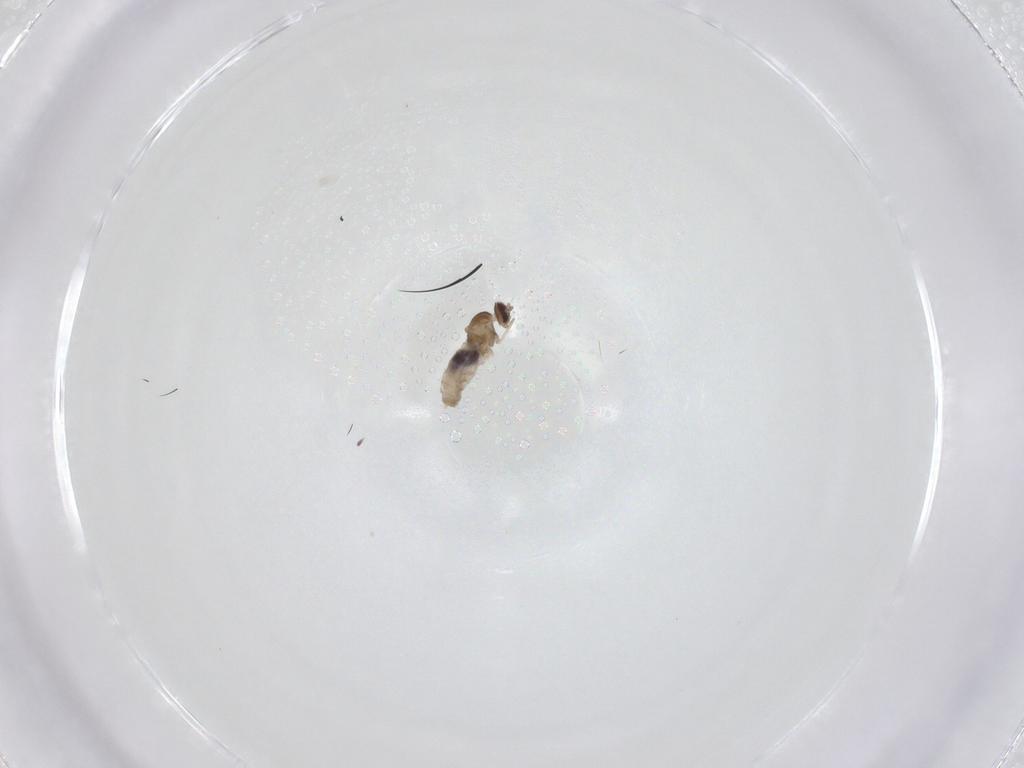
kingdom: Animalia
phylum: Arthropoda
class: Insecta
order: Diptera
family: Cecidomyiidae
